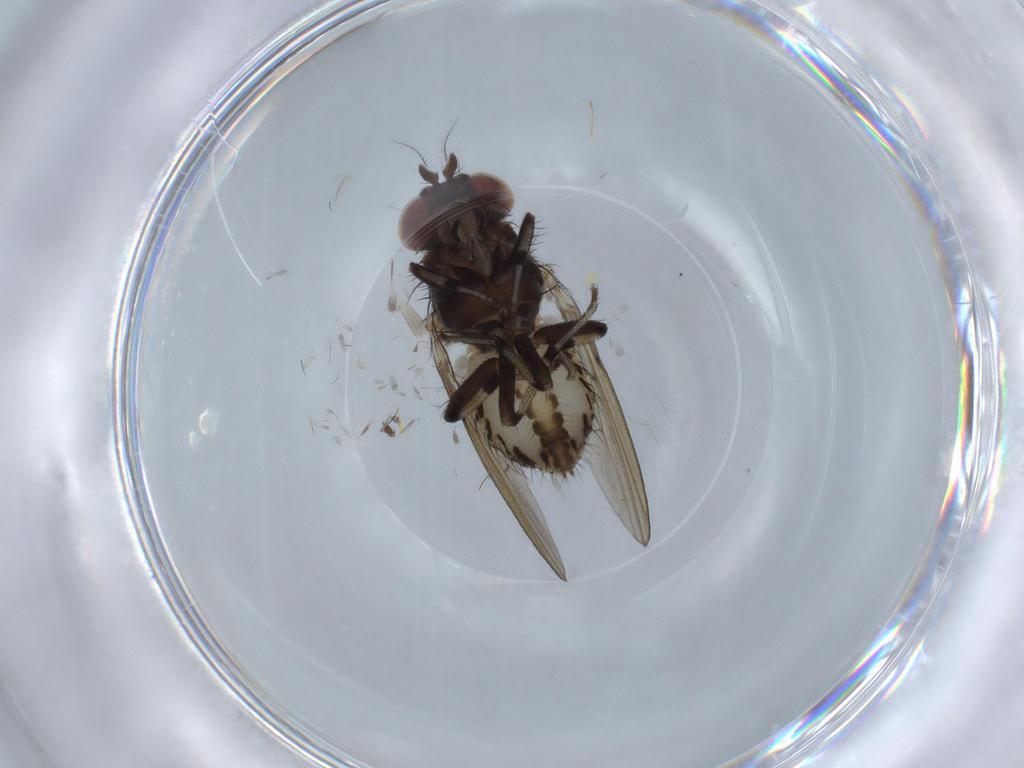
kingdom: Animalia
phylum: Arthropoda
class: Insecta
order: Diptera
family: Ceratopogonidae
